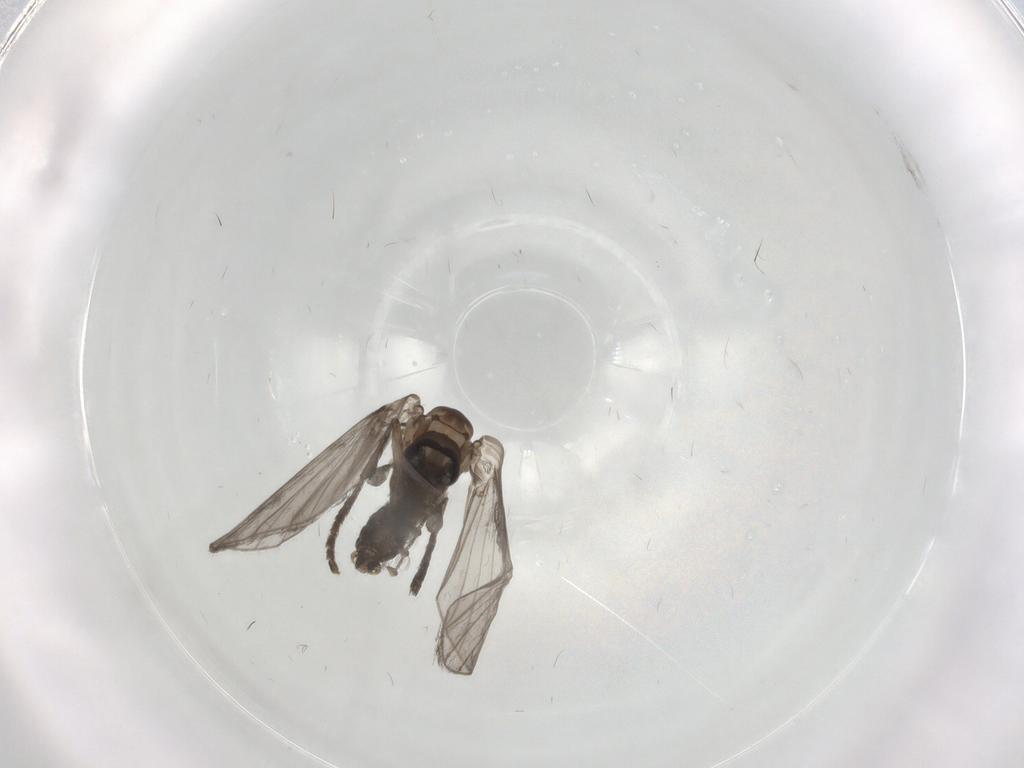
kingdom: Animalia
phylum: Arthropoda
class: Insecta
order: Diptera
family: Psychodidae
